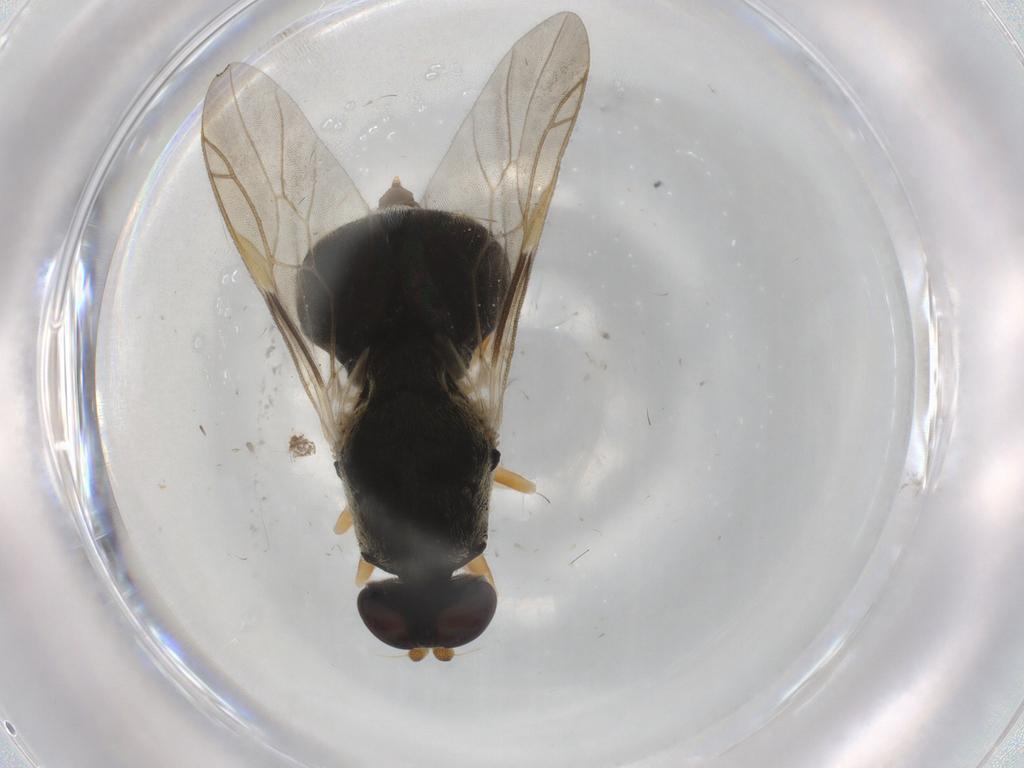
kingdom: Animalia
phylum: Arthropoda
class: Insecta
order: Diptera
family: Stratiomyidae
